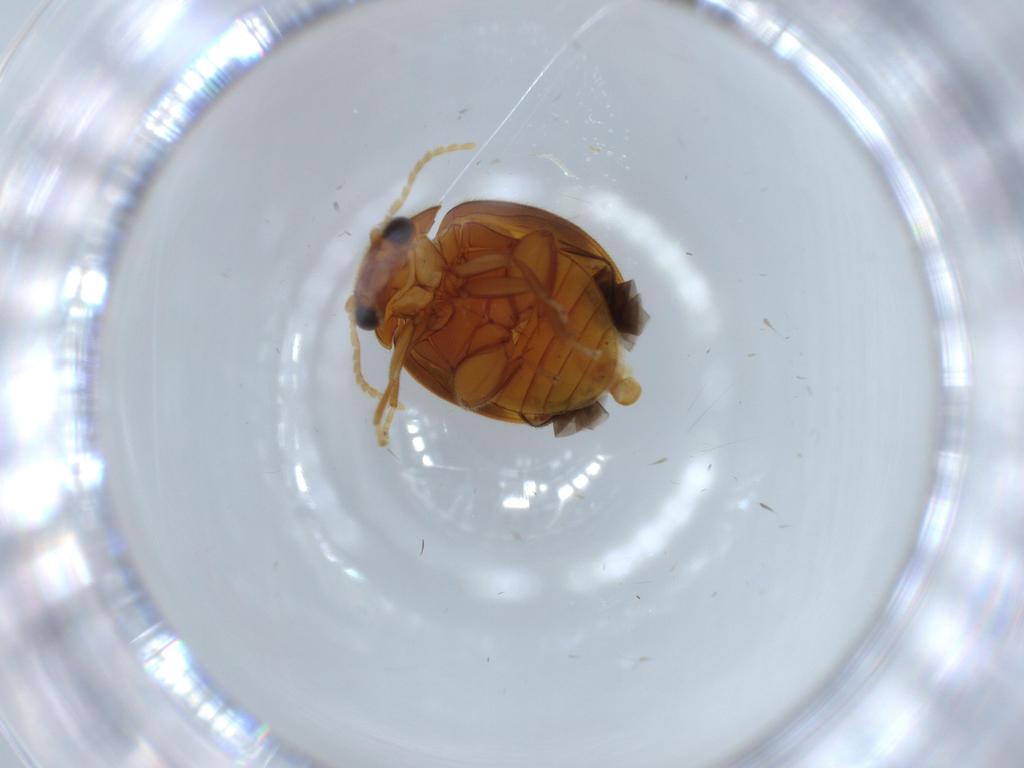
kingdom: Animalia
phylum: Arthropoda
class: Insecta
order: Coleoptera
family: Scirtidae
